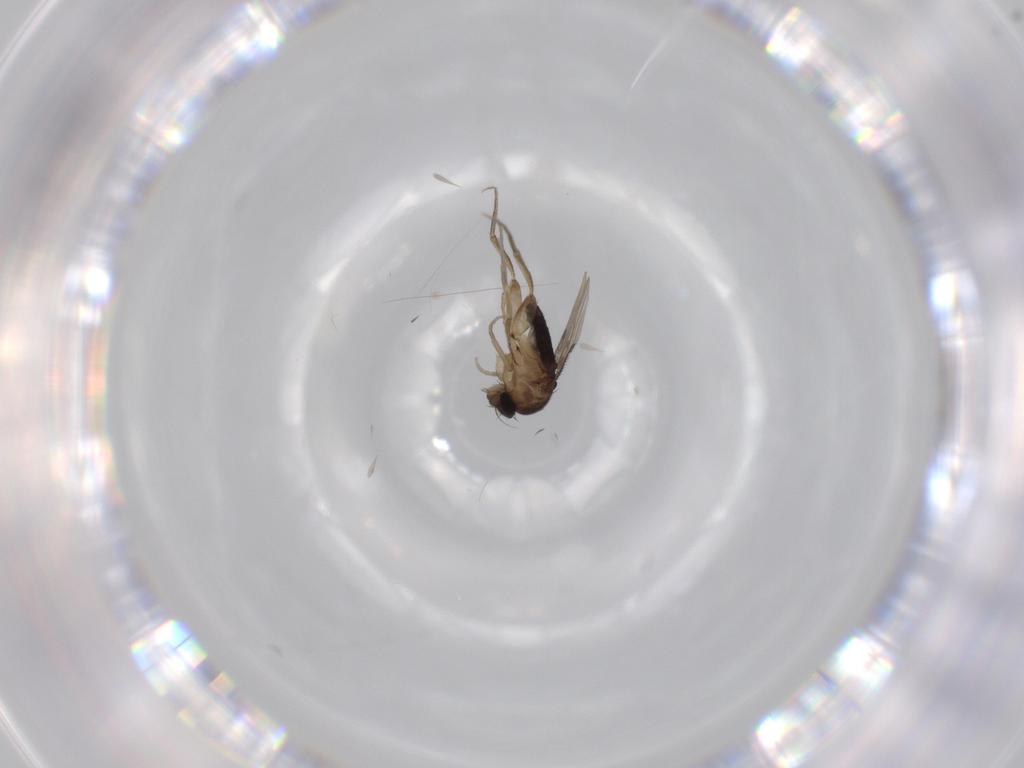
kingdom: Animalia
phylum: Arthropoda
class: Insecta
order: Diptera
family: Phoridae
